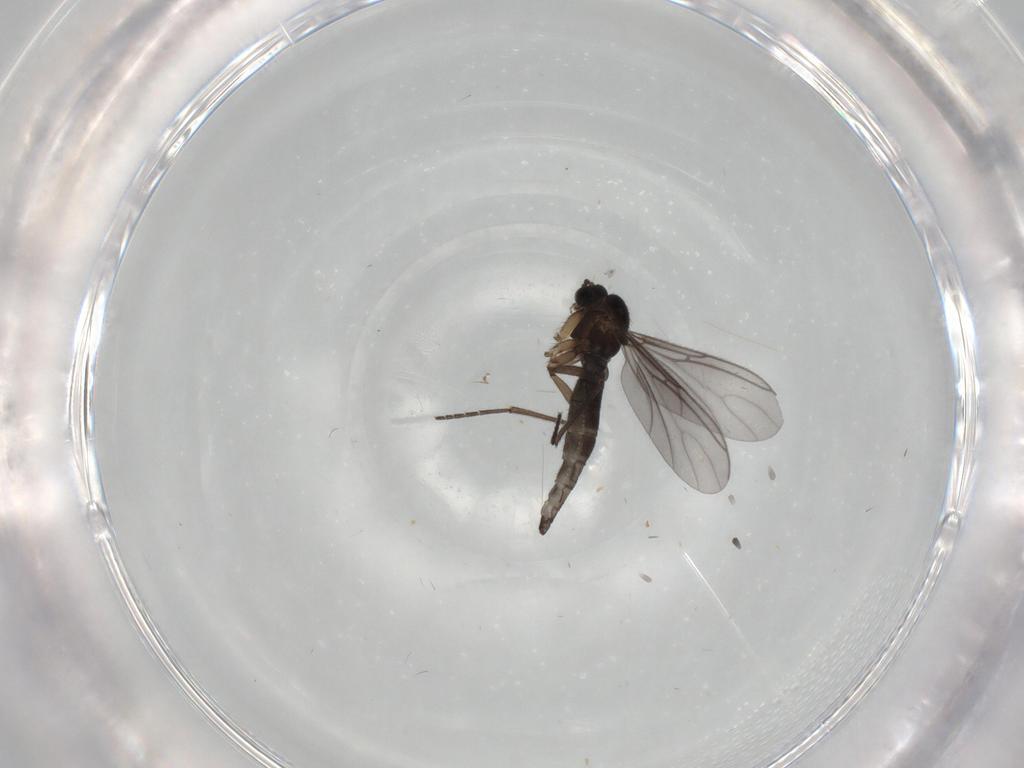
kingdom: Animalia
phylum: Arthropoda
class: Insecta
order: Diptera
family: Sciaridae
